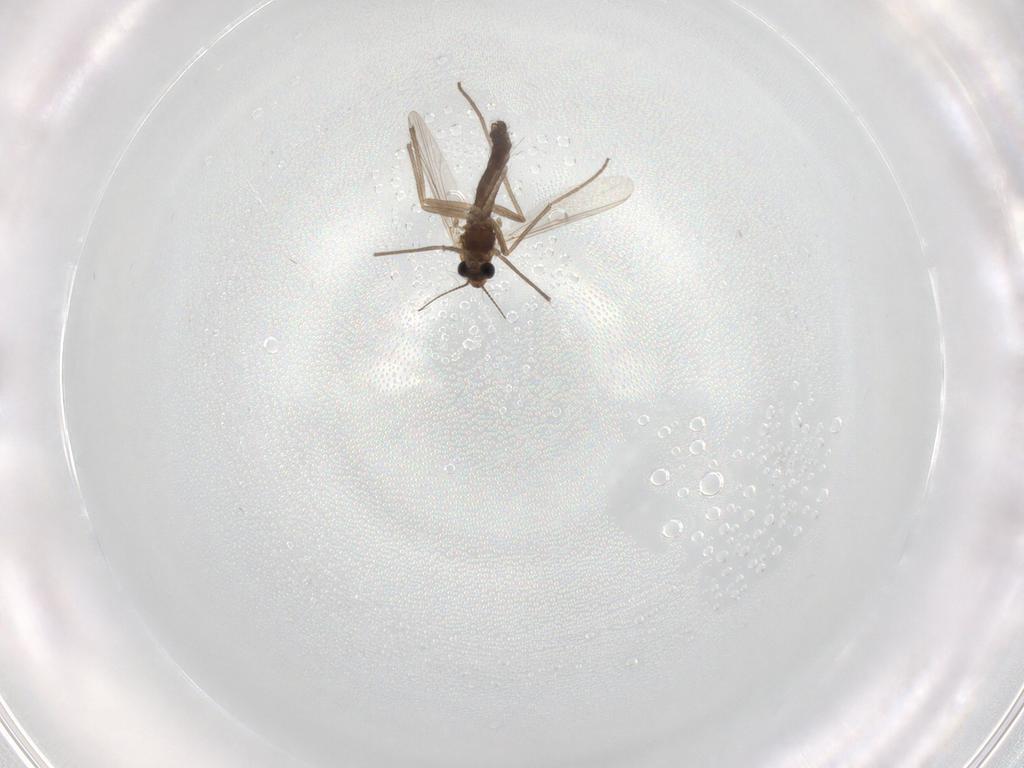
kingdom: Animalia
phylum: Arthropoda
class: Insecta
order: Diptera
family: Chironomidae
